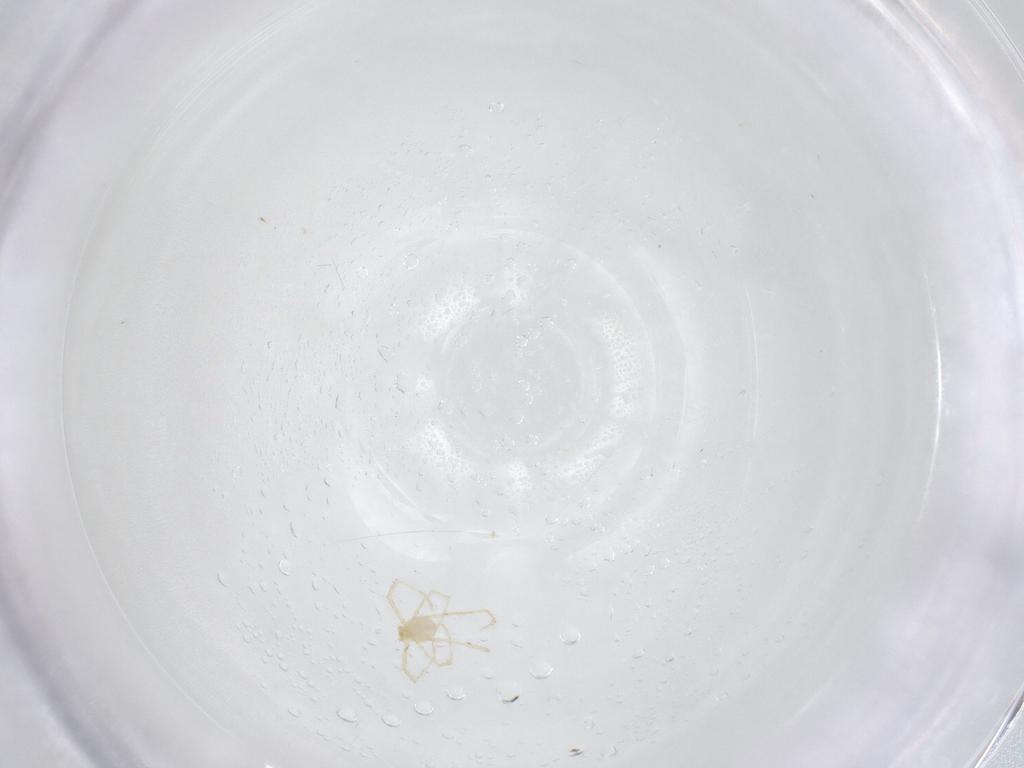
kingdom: Animalia
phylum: Arthropoda
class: Arachnida
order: Trombidiformes
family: Erythraeidae
